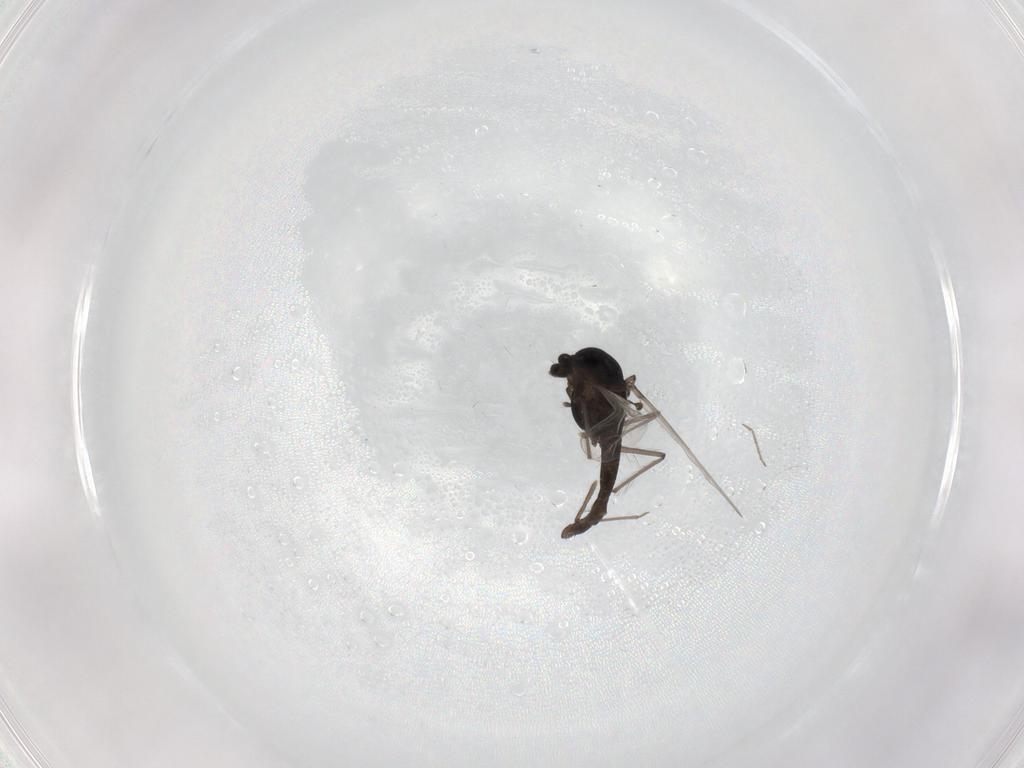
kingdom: Animalia
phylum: Arthropoda
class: Insecta
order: Diptera
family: Chironomidae
